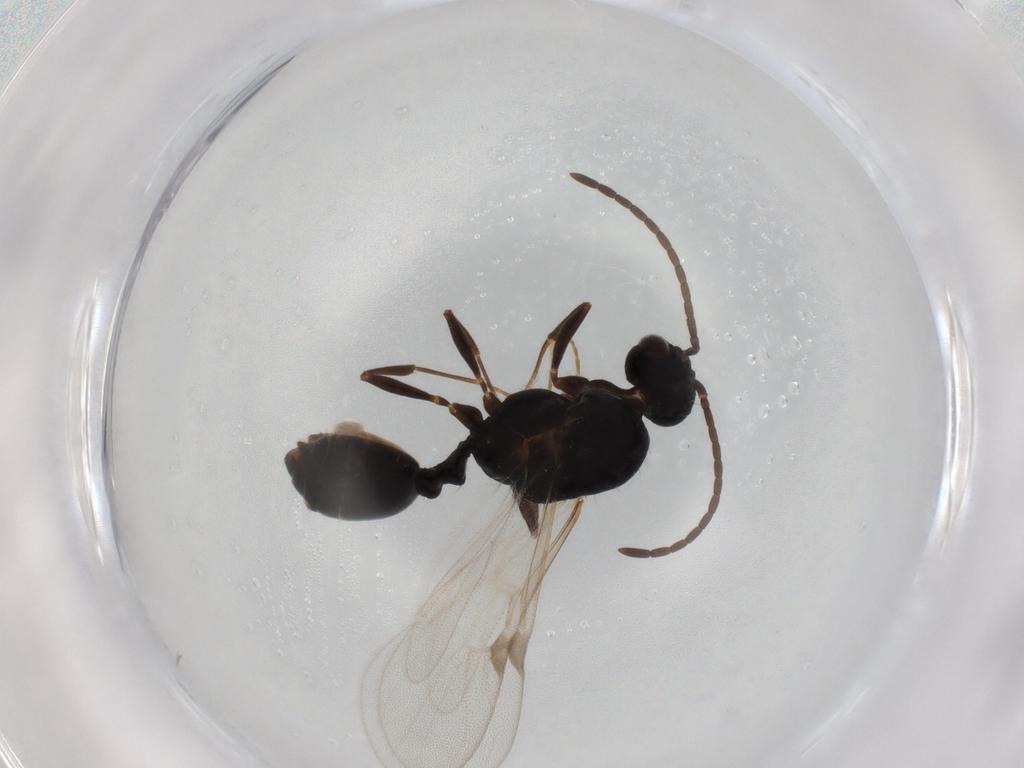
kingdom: Animalia
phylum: Arthropoda
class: Insecta
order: Hymenoptera
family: Formicidae
